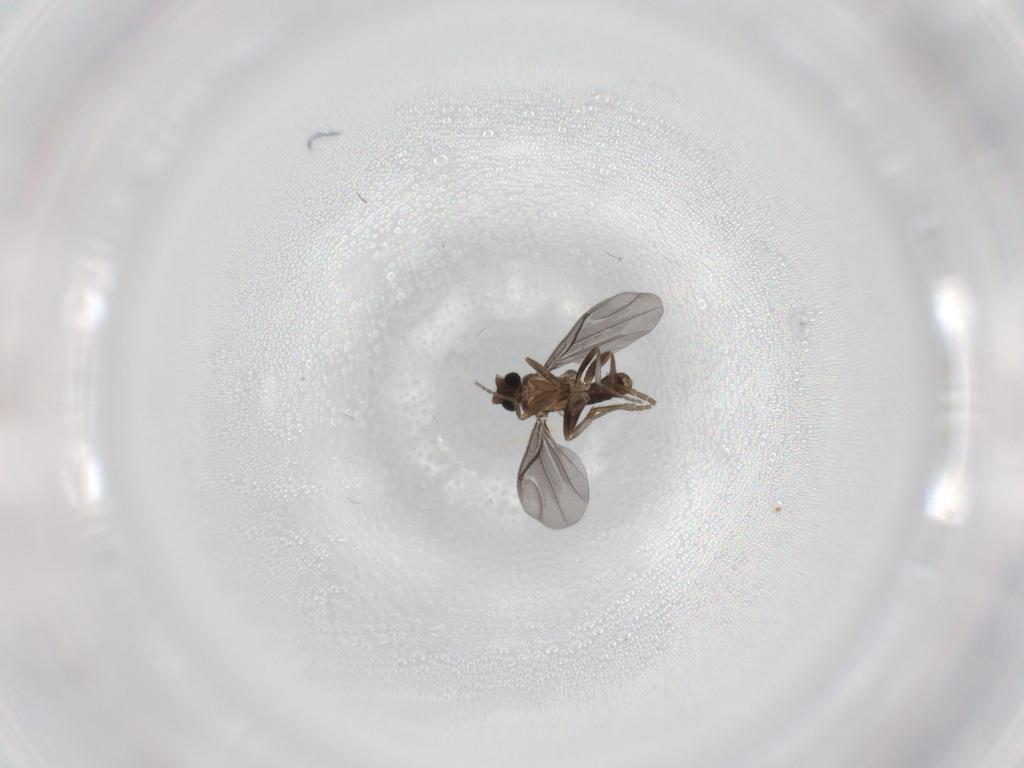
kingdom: Animalia
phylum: Arthropoda
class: Insecta
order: Diptera
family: Phoridae
